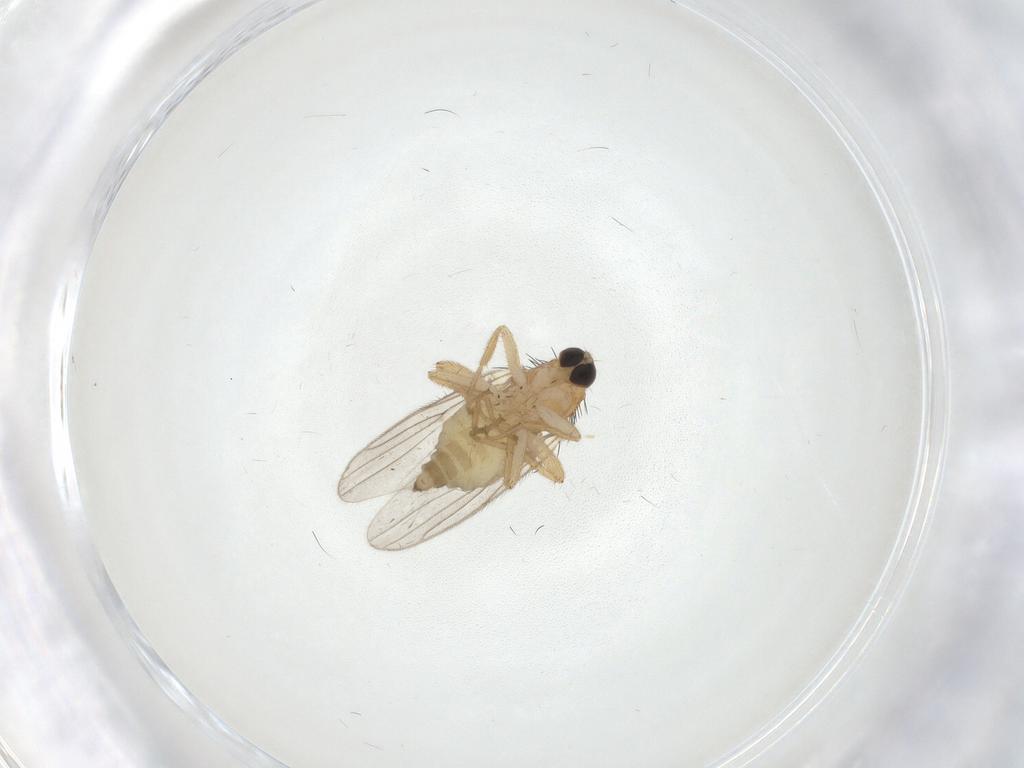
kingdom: Animalia
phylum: Arthropoda
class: Insecta
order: Diptera
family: Hybotidae
